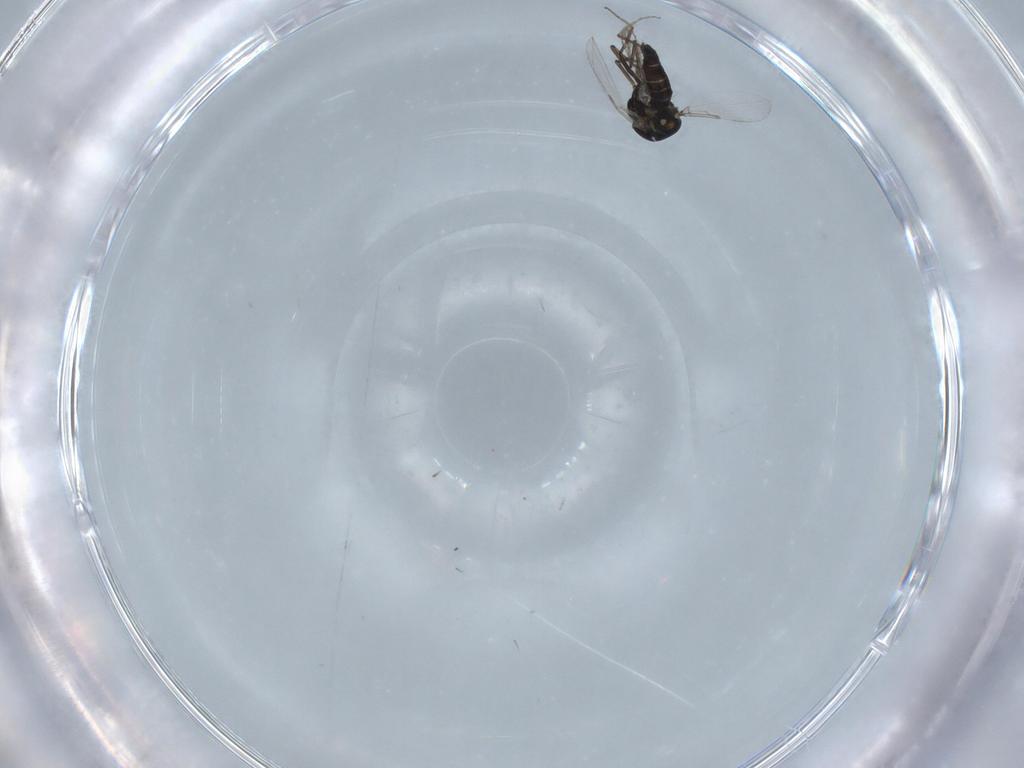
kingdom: Animalia
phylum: Arthropoda
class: Insecta
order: Diptera
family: Ceratopogonidae
